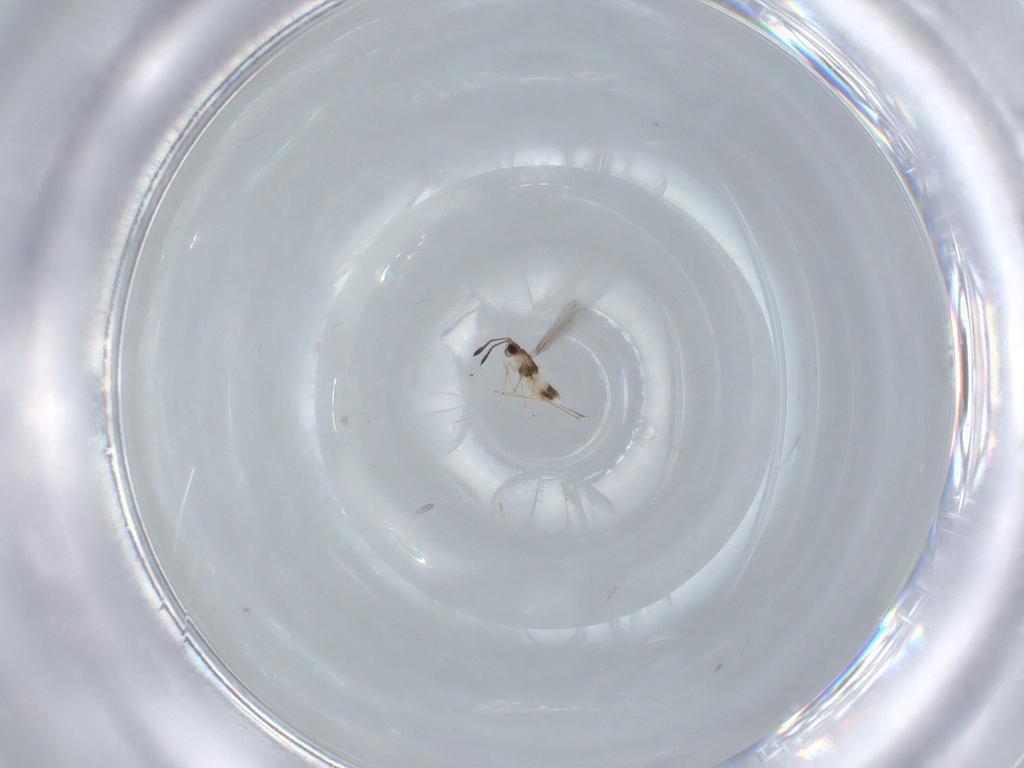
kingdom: Animalia
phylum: Arthropoda
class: Insecta
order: Hymenoptera
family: Mymaridae
